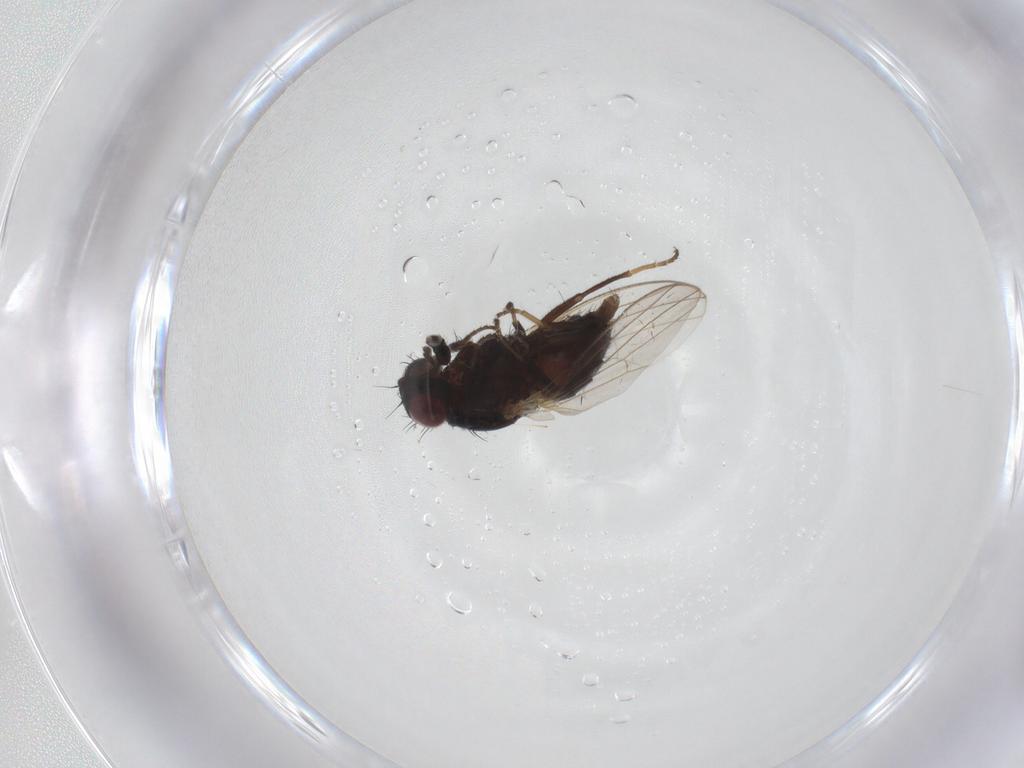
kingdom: Animalia
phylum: Arthropoda
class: Insecta
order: Diptera
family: Carnidae
